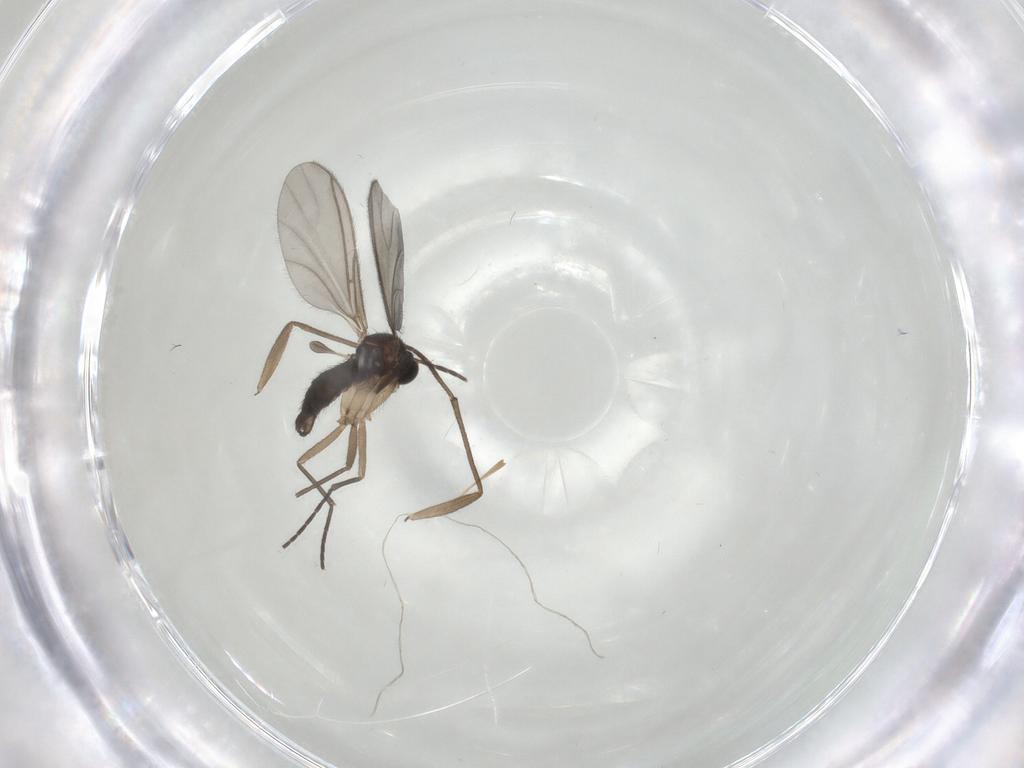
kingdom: Animalia
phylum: Arthropoda
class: Insecta
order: Diptera
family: Sciaridae
